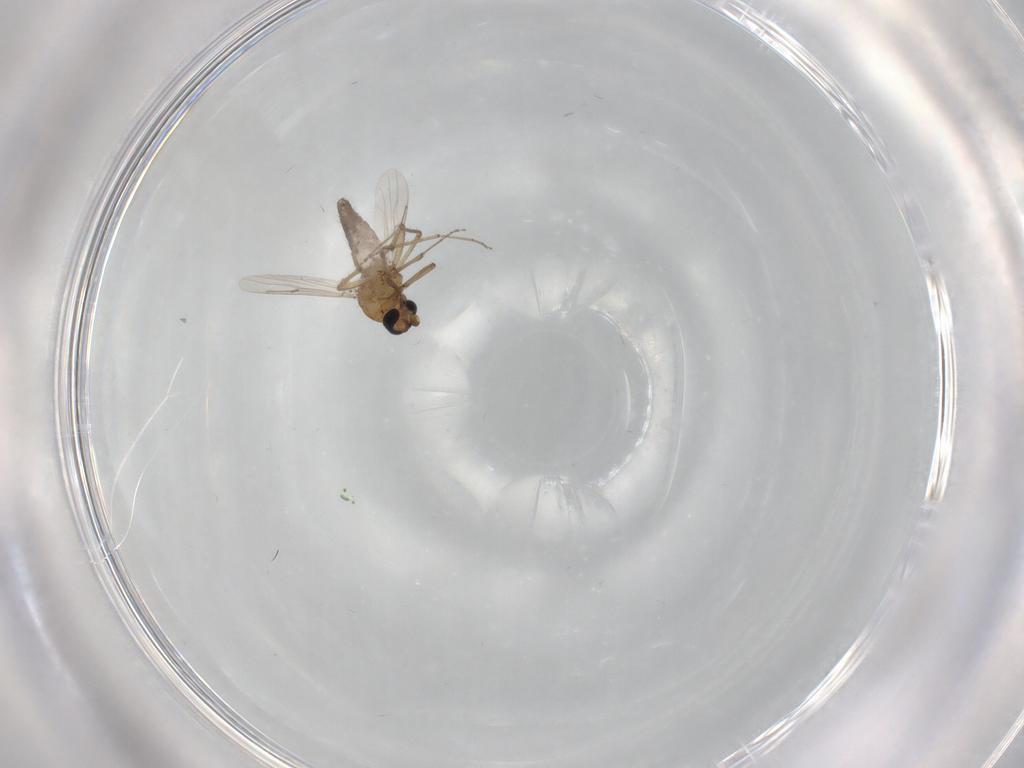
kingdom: Animalia
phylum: Arthropoda
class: Insecta
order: Diptera
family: Ceratopogonidae
